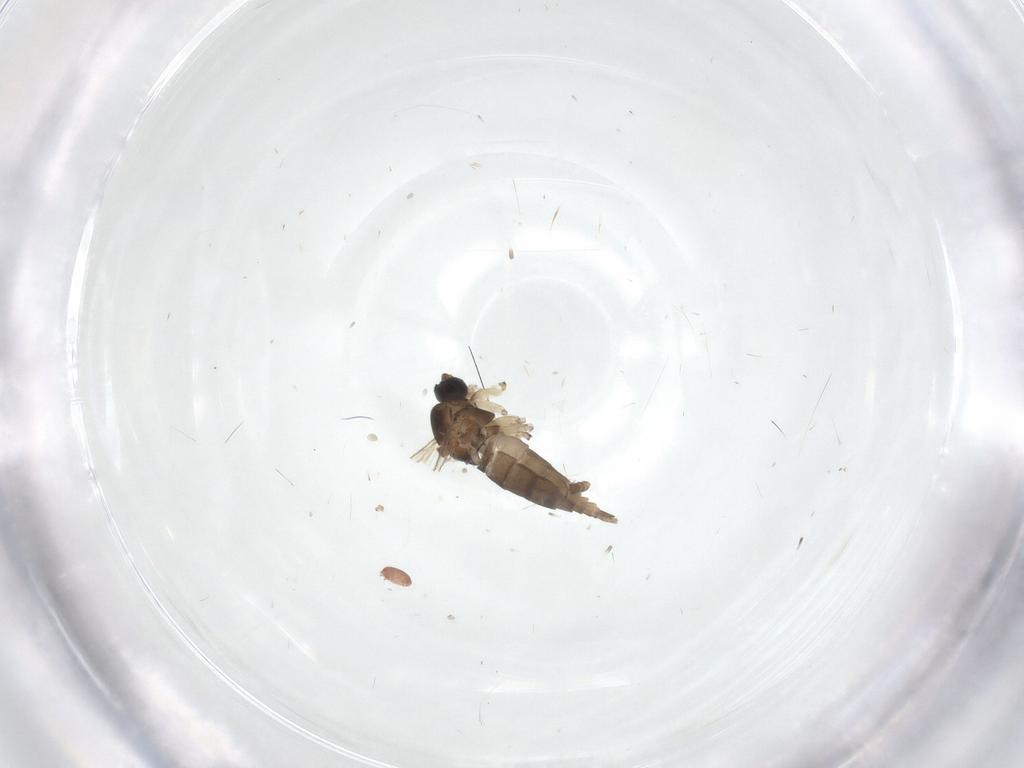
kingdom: Animalia
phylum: Arthropoda
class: Insecta
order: Diptera
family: Sciaridae
